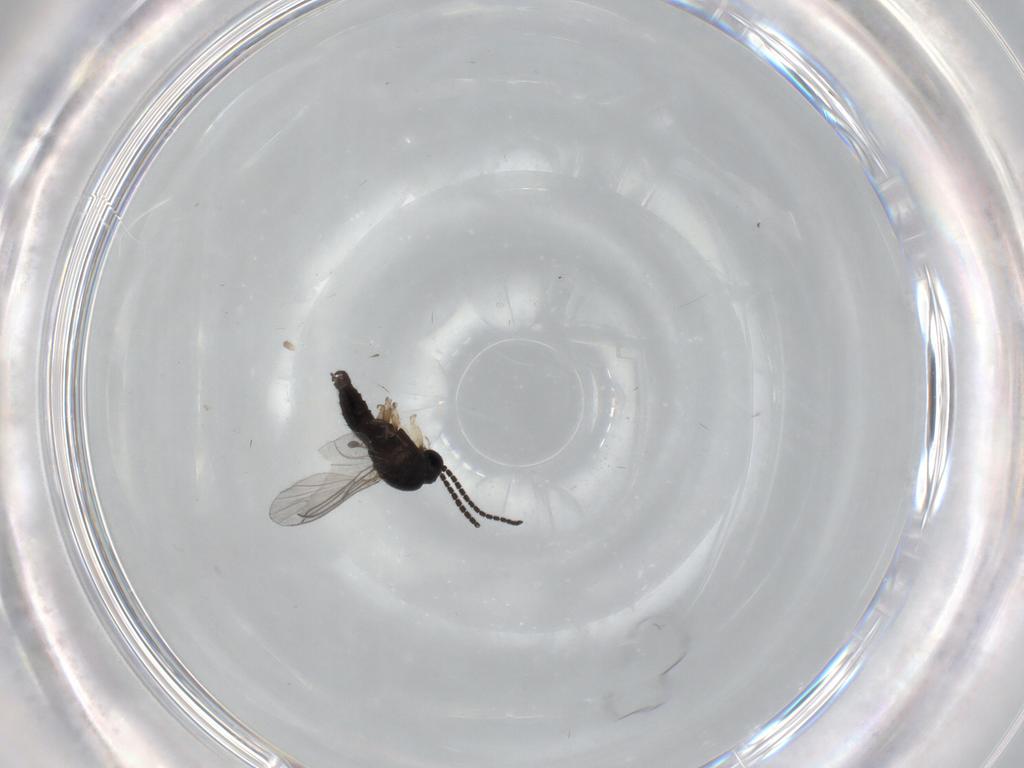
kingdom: Animalia
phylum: Arthropoda
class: Insecta
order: Diptera
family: Sciaridae
